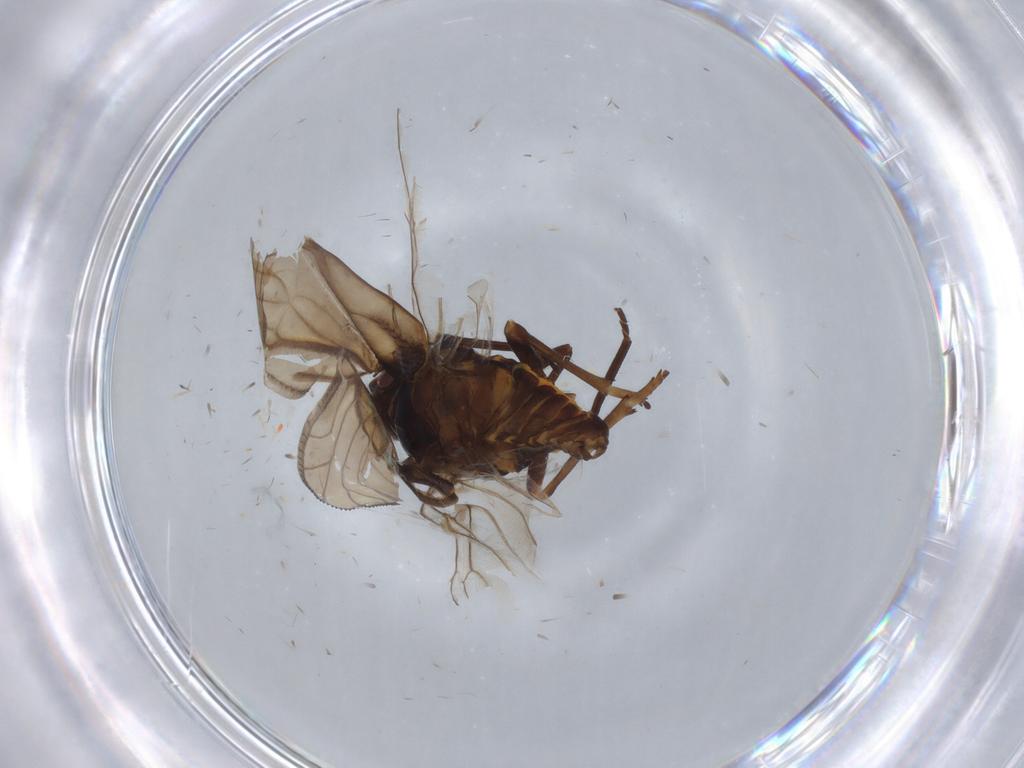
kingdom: Animalia
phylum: Arthropoda
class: Insecta
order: Hemiptera
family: Meenoplidae
